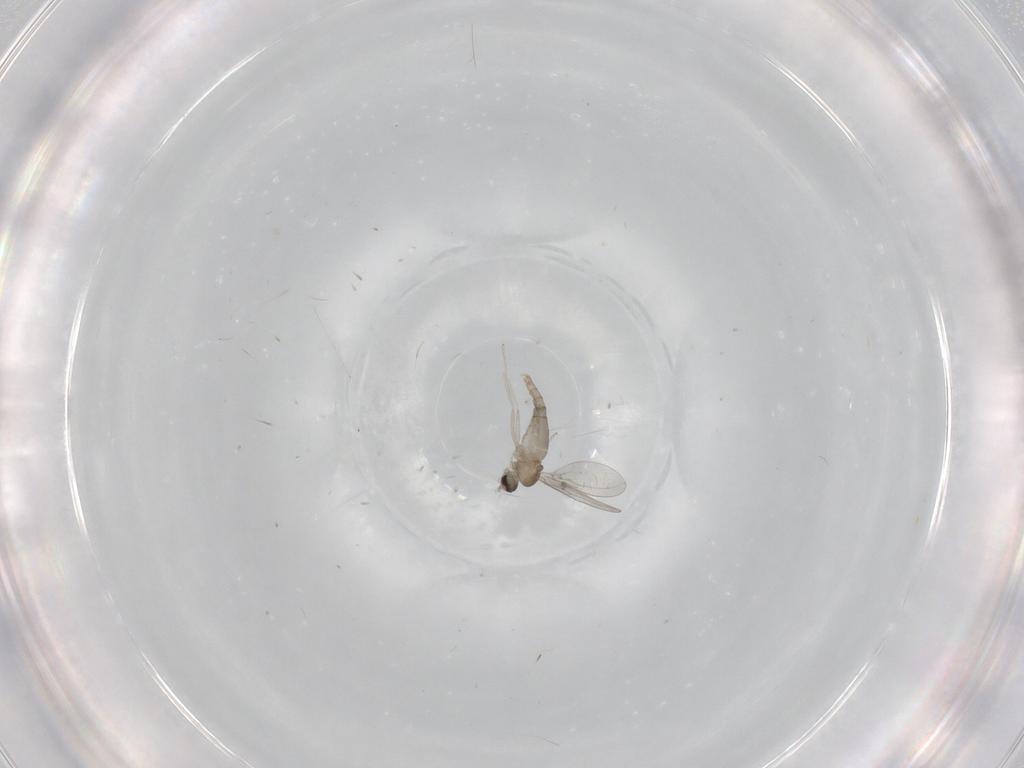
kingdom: Animalia
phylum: Arthropoda
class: Insecta
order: Diptera
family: Cecidomyiidae
